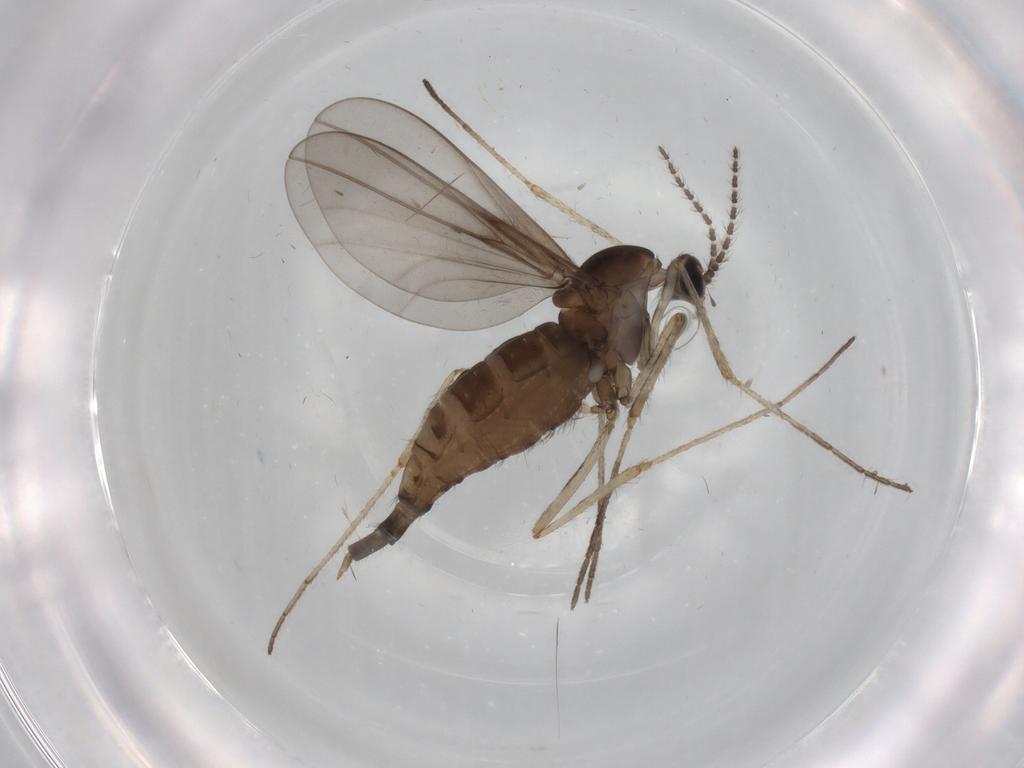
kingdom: Animalia
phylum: Arthropoda
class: Insecta
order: Diptera
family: Cecidomyiidae
